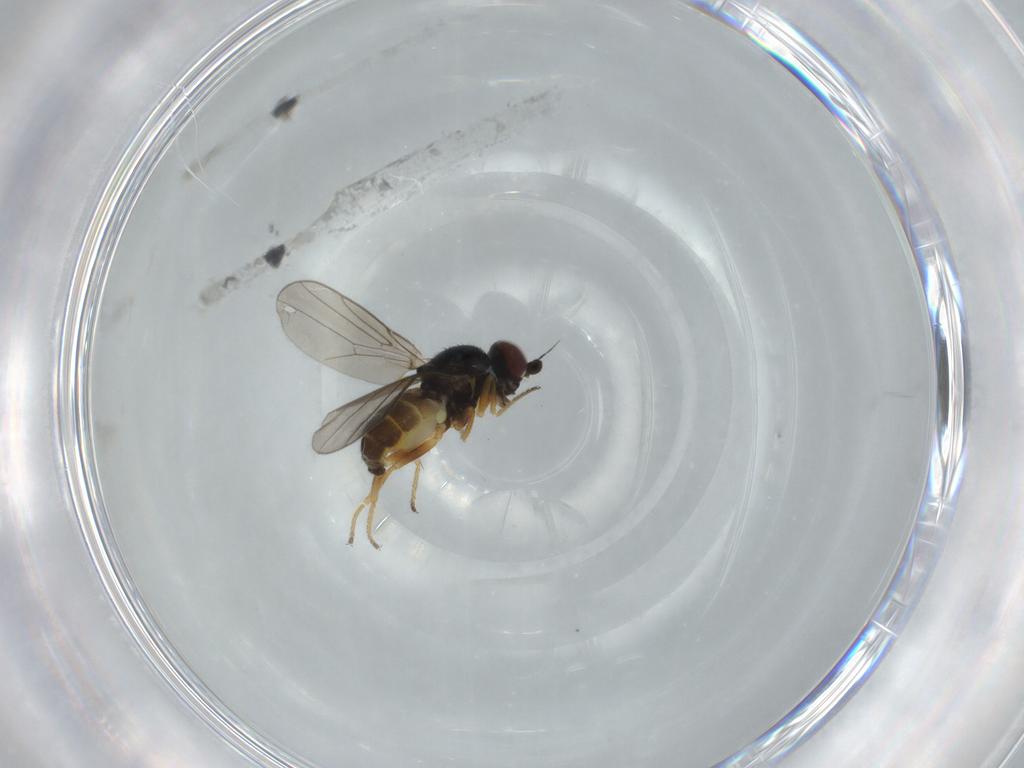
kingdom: Animalia
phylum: Arthropoda
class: Insecta
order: Diptera
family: Chloropidae
